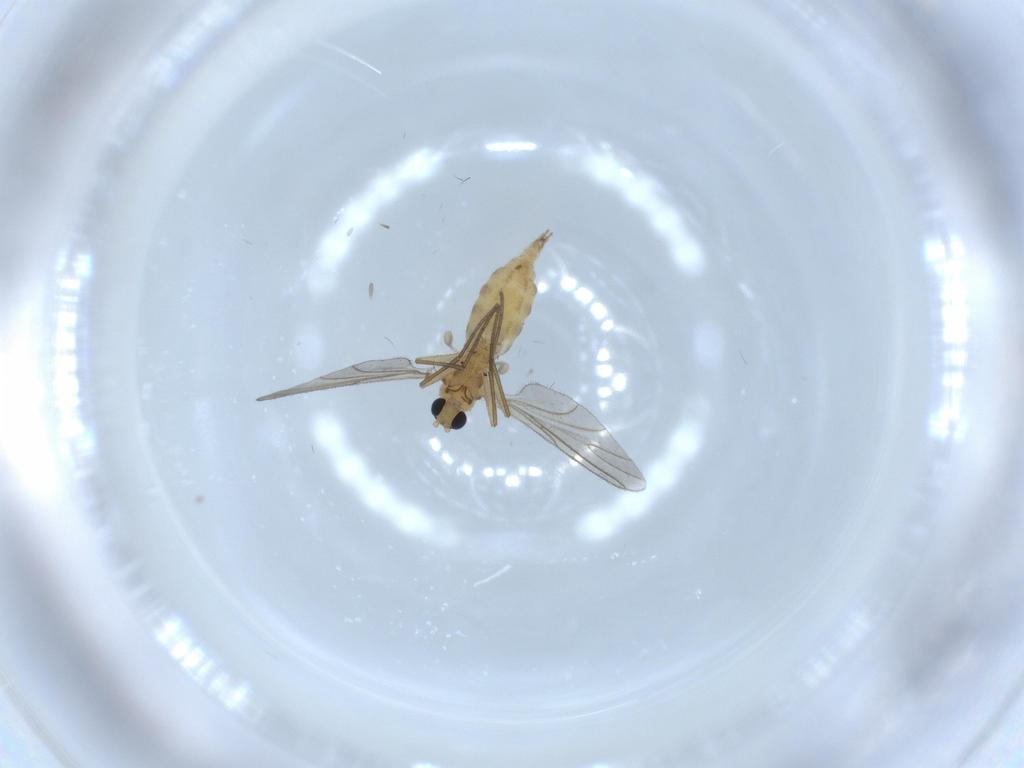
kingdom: Animalia
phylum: Arthropoda
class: Insecta
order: Diptera
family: Sciaridae
